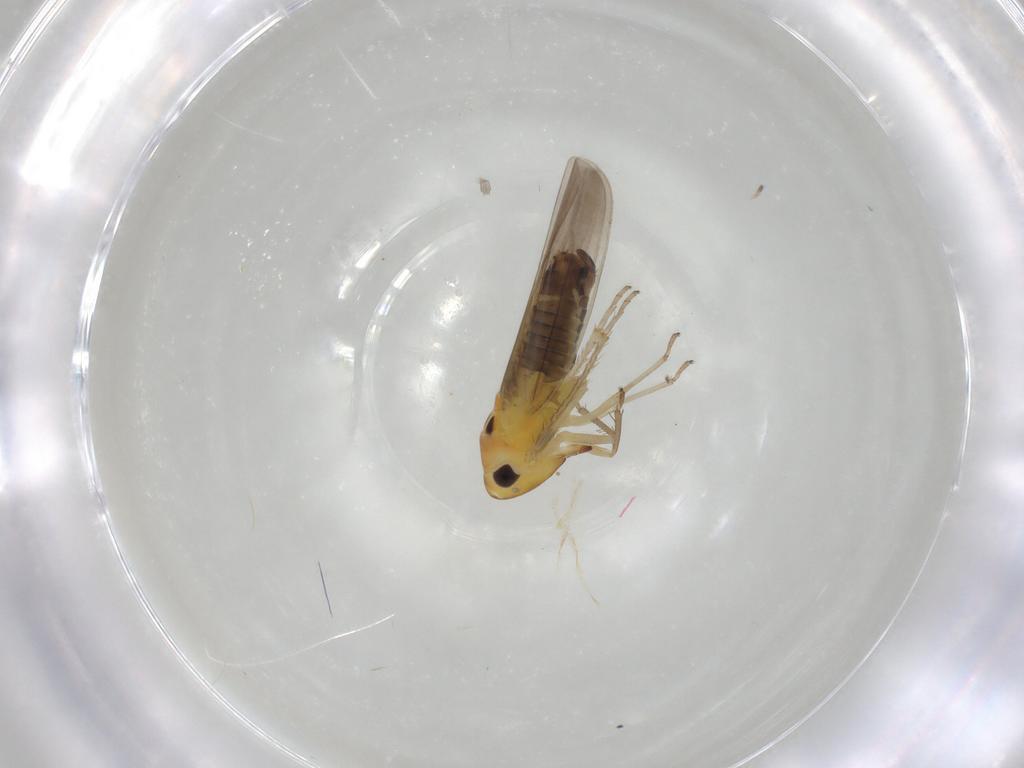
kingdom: Animalia
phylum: Arthropoda
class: Insecta
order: Hemiptera
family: Cicadellidae
